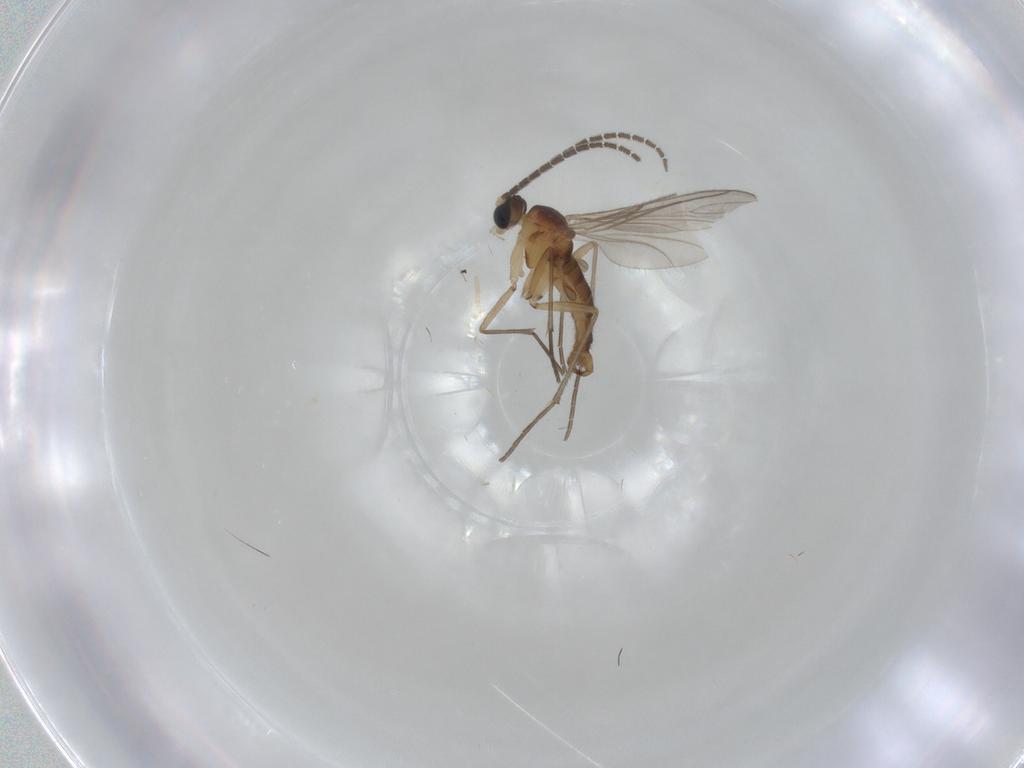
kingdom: Animalia
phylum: Arthropoda
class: Insecta
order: Diptera
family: Sciaridae
